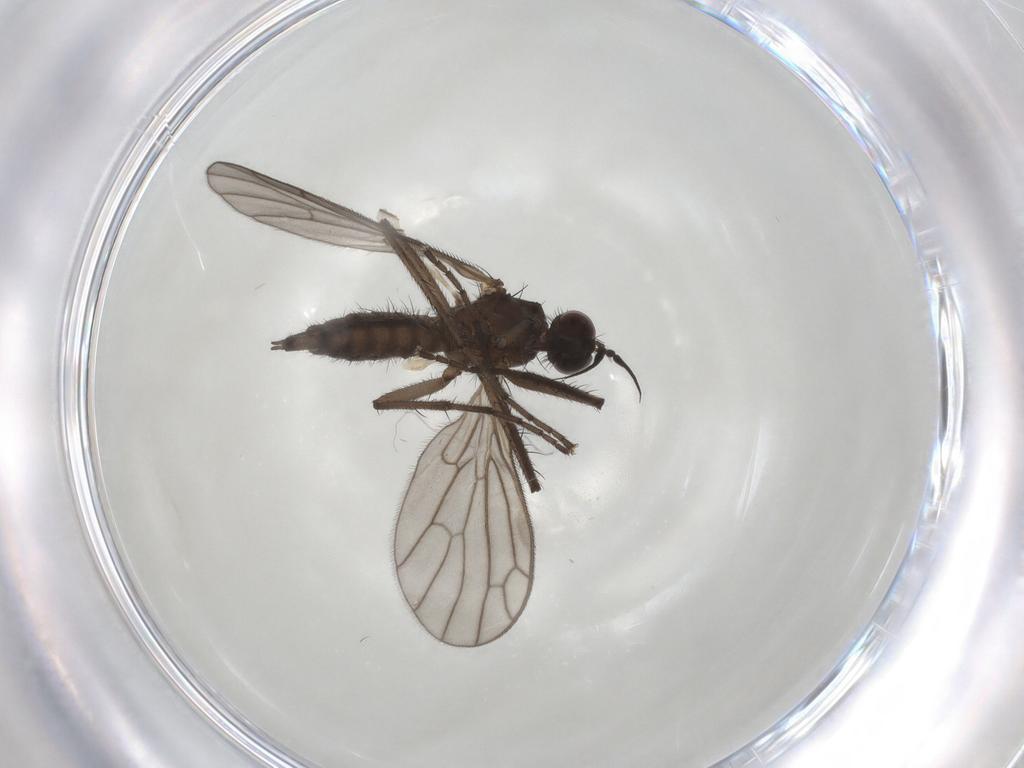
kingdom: Animalia
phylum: Arthropoda
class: Insecta
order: Diptera
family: Empididae
